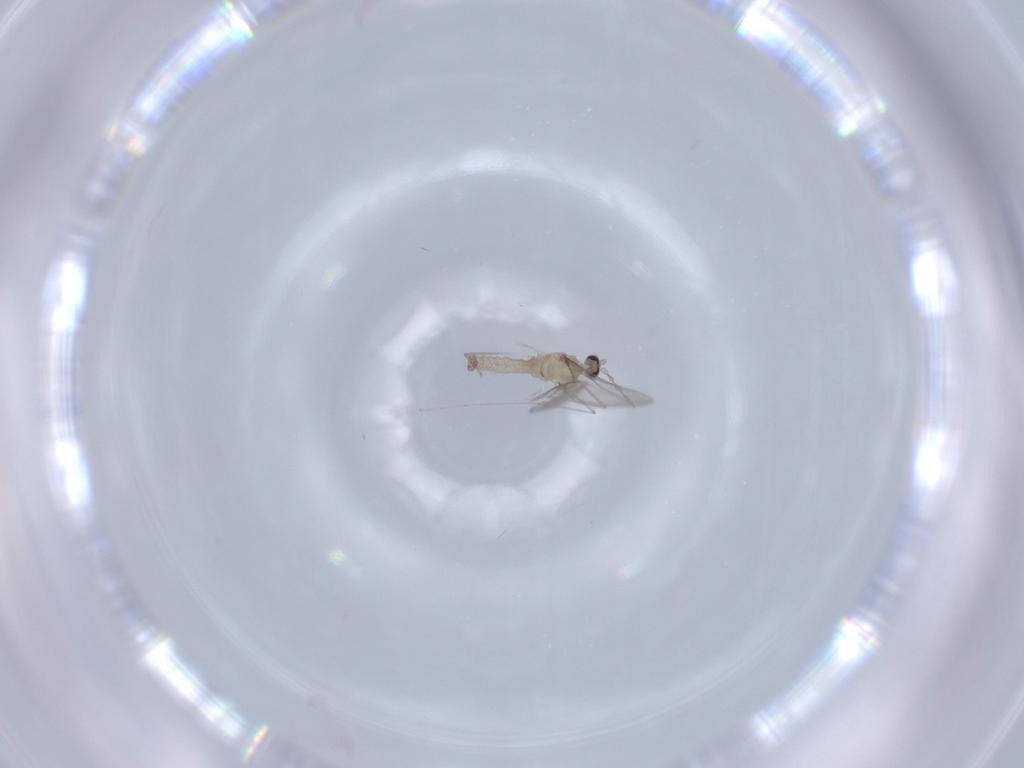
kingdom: Animalia
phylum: Arthropoda
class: Insecta
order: Diptera
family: Cecidomyiidae
